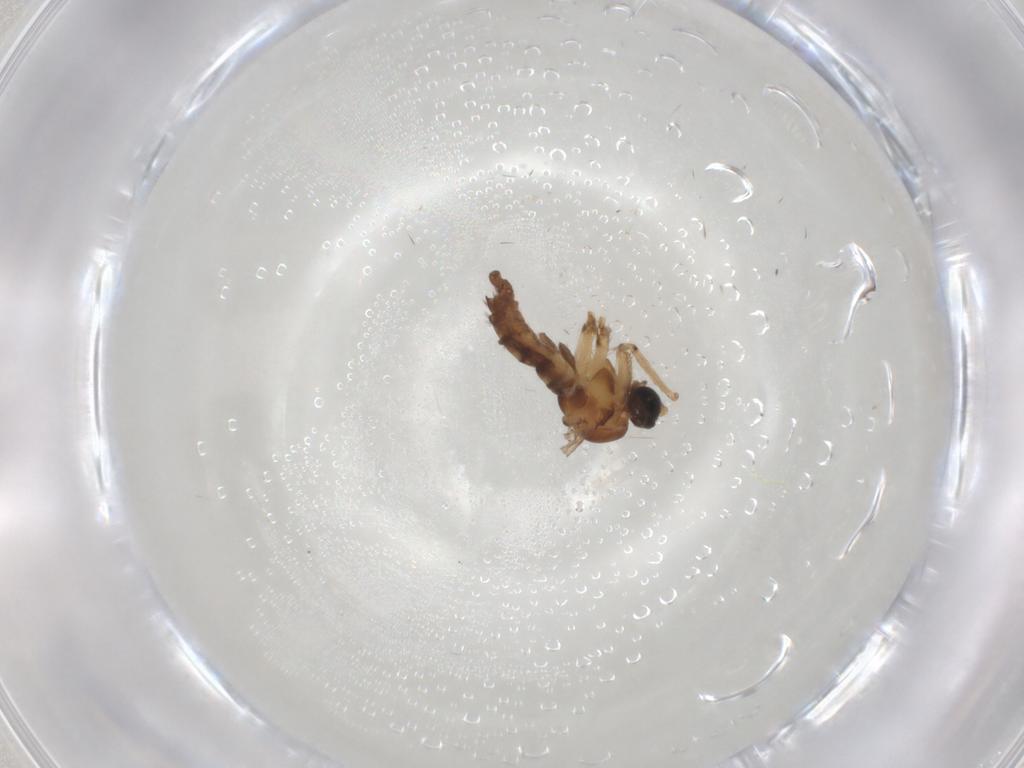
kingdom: Animalia
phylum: Arthropoda
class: Insecta
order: Diptera
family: Sciaridae
